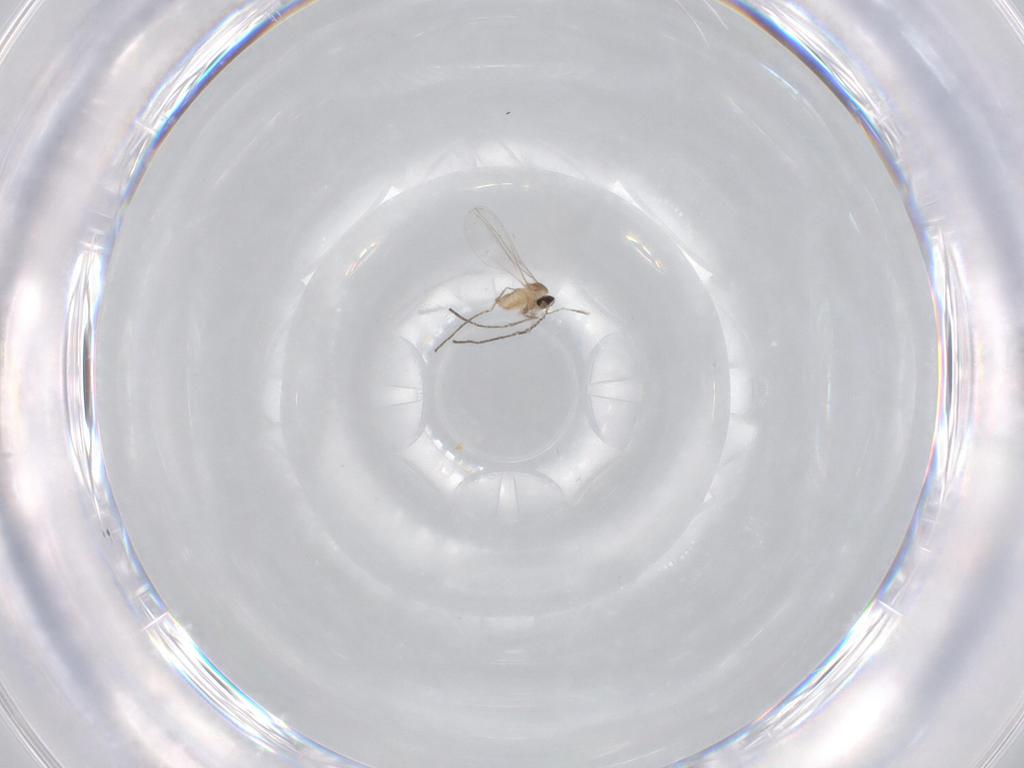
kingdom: Animalia
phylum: Arthropoda
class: Insecta
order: Diptera
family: Cecidomyiidae
